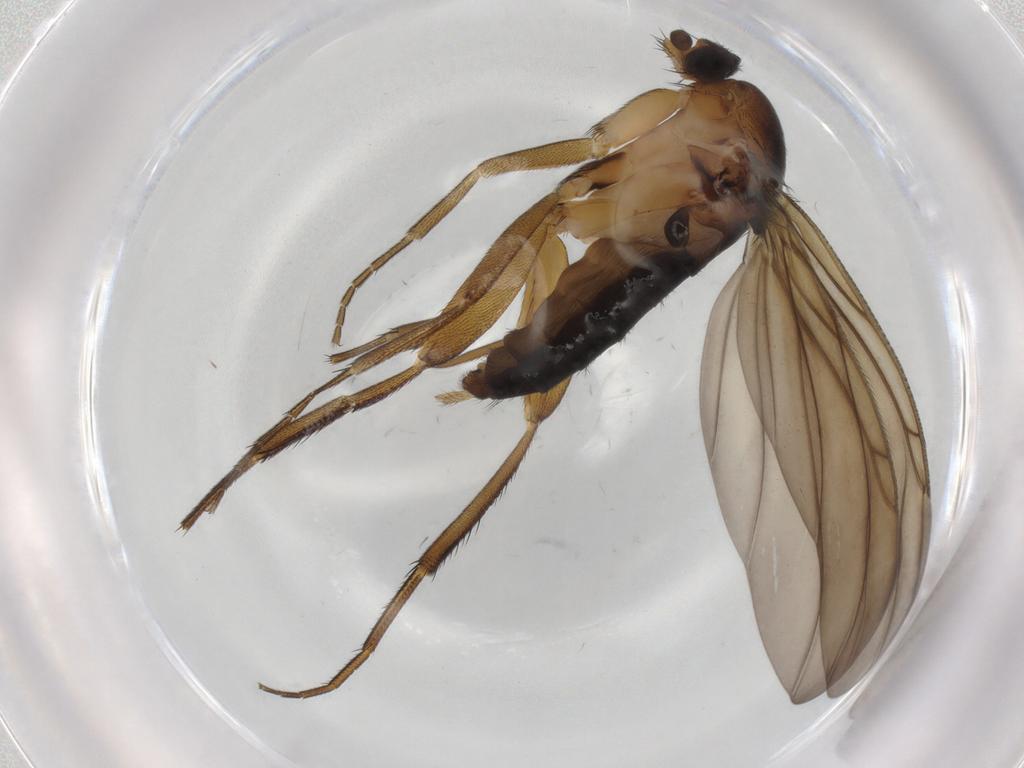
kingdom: Animalia
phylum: Arthropoda
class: Insecta
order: Diptera
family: Phoridae
